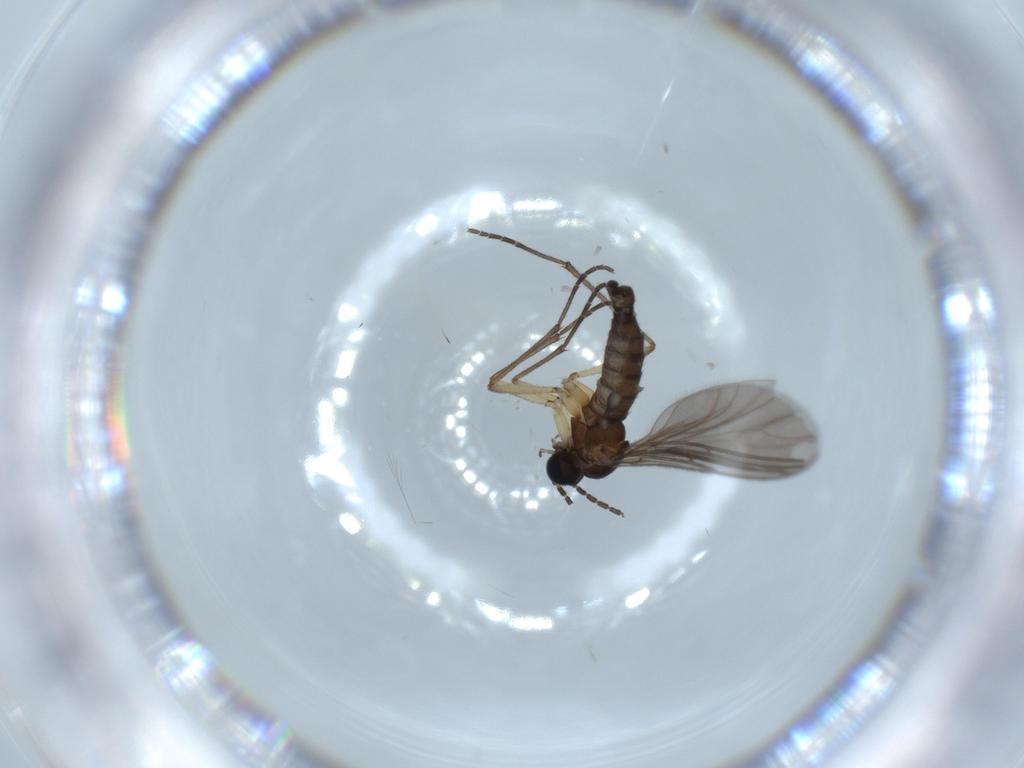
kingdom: Animalia
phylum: Arthropoda
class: Insecta
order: Diptera
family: Sciaridae
